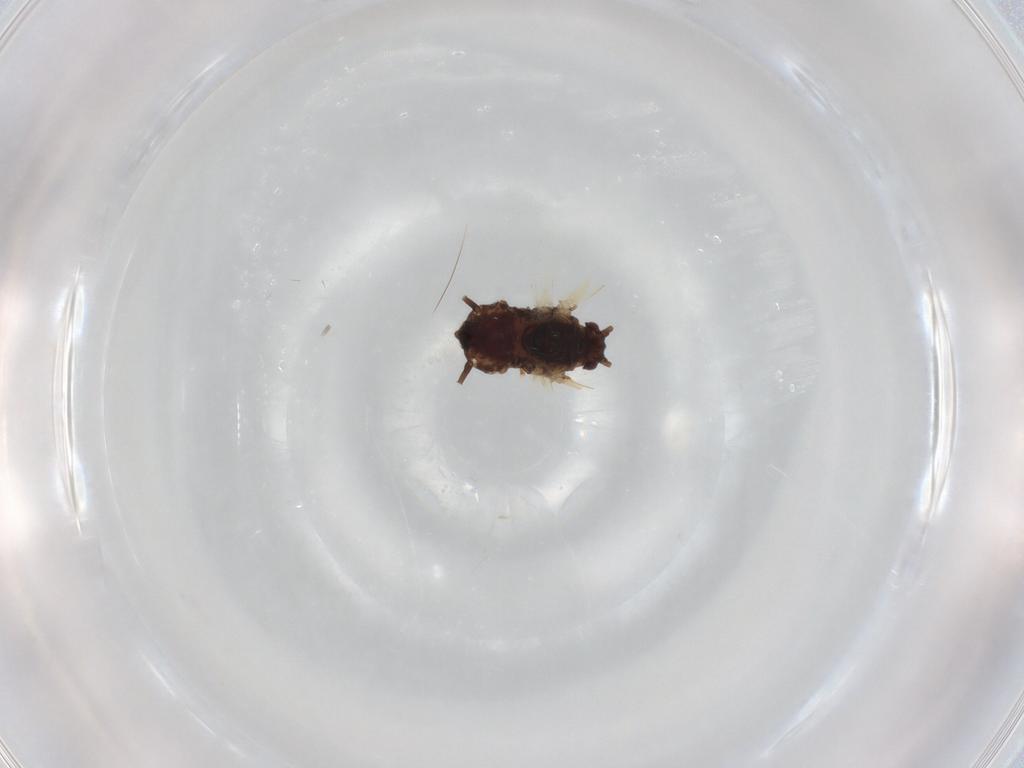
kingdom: Animalia
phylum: Arthropoda
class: Insecta
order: Hemiptera
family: Aphididae
